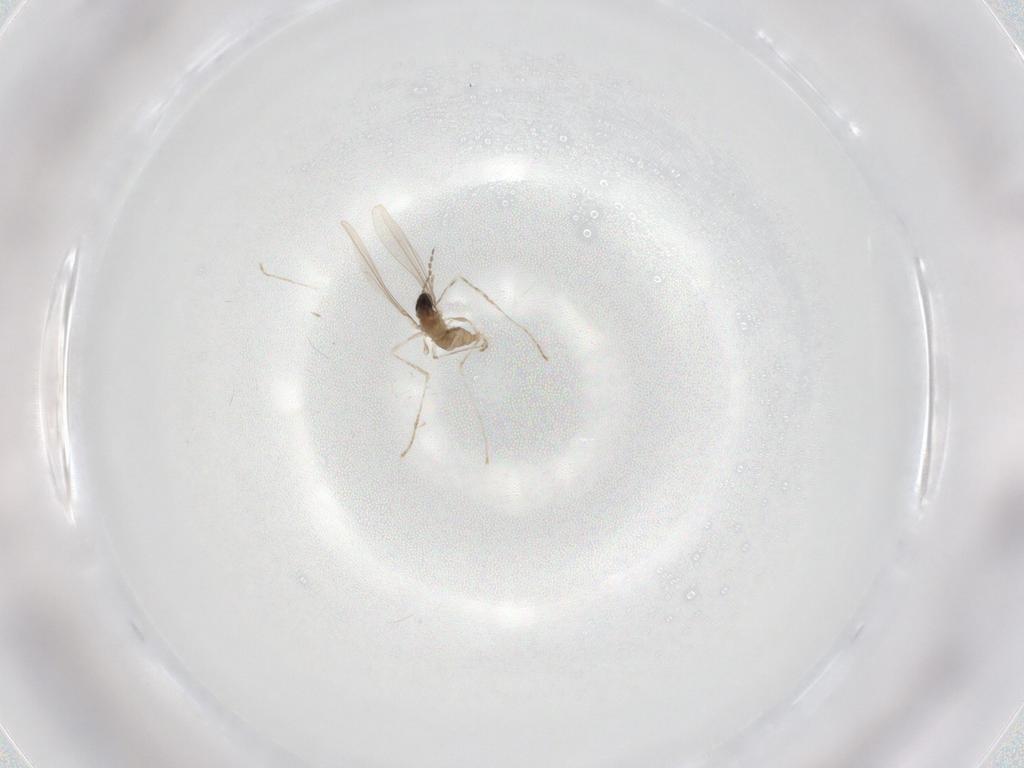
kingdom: Animalia
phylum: Arthropoda
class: Insecta
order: Diptera
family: Cecidomyiidae
